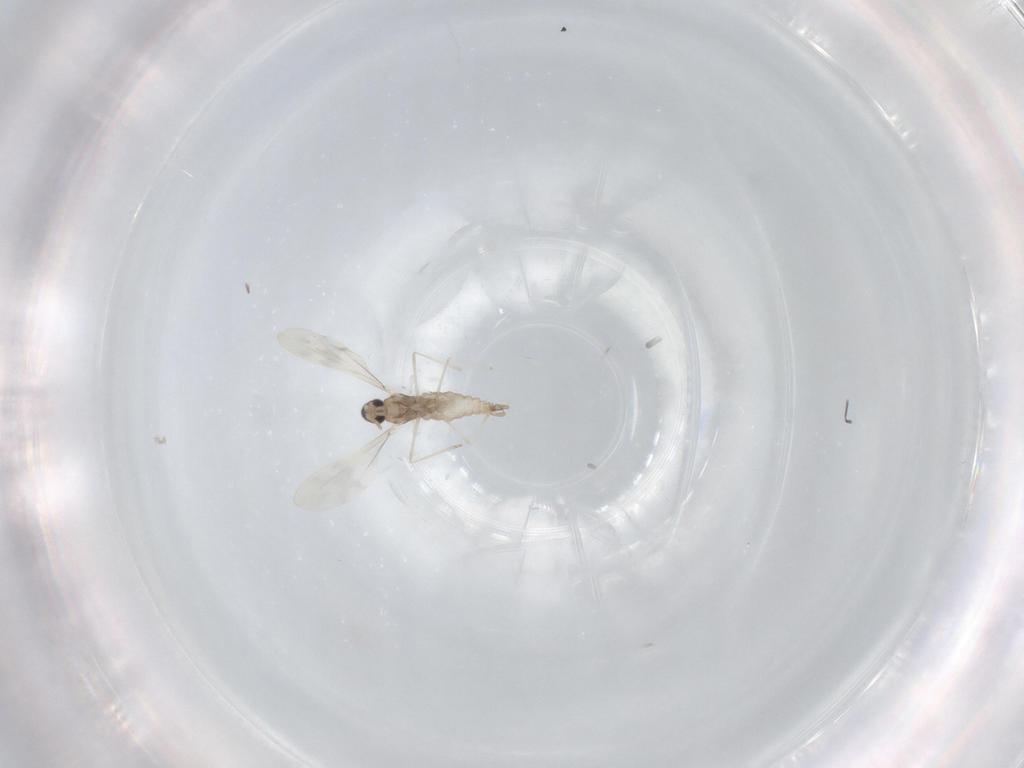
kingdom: Animalia
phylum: Arthropoda
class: Insecta
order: Diptera
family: Cecidomyiidae
